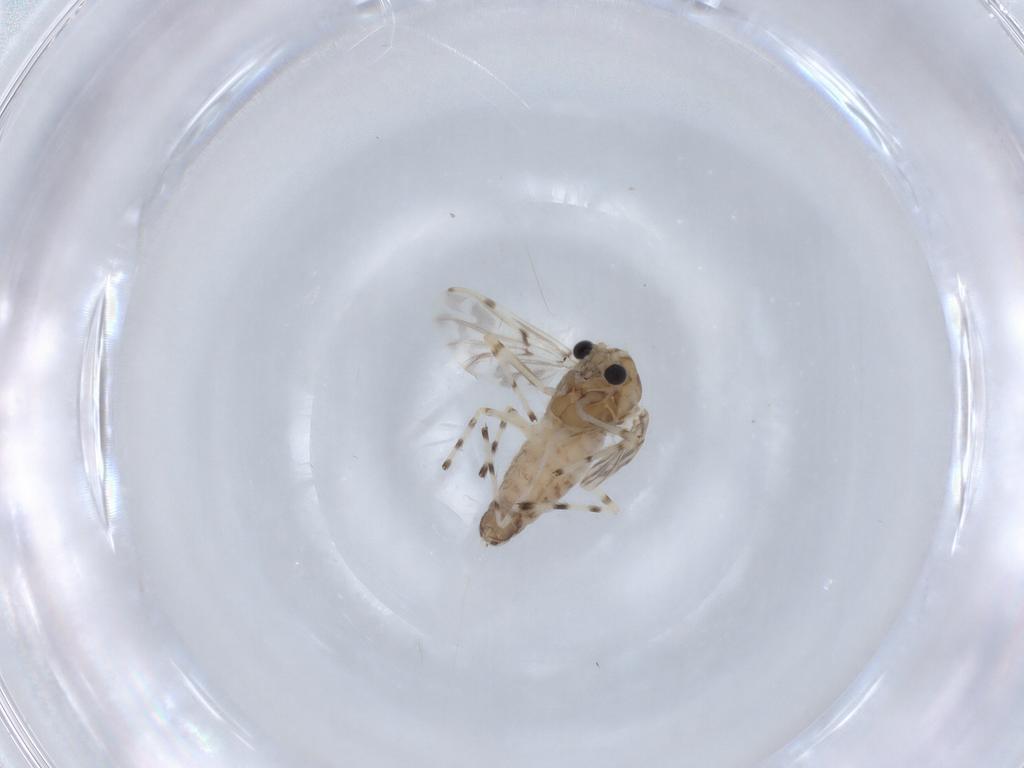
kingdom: Animalia
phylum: Arthropoda
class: Insecta
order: Diptera
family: Chironomidae
